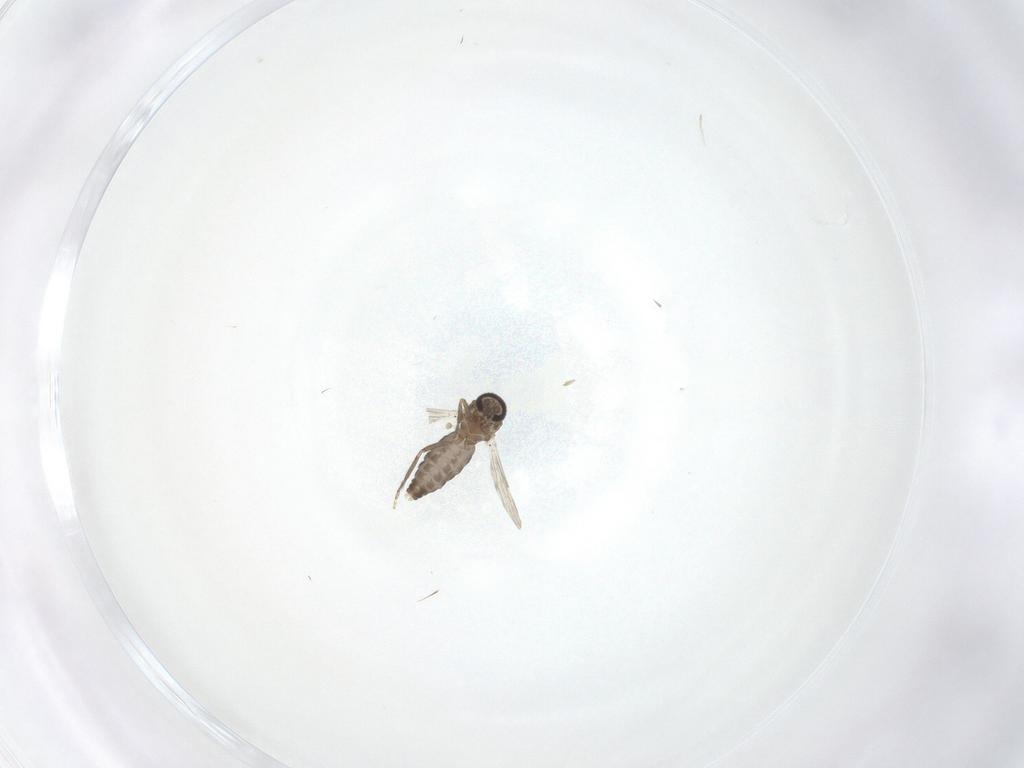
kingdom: Animalia
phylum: Arthropoda
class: Insecta
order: Diptera
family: Ceratopogonidae
